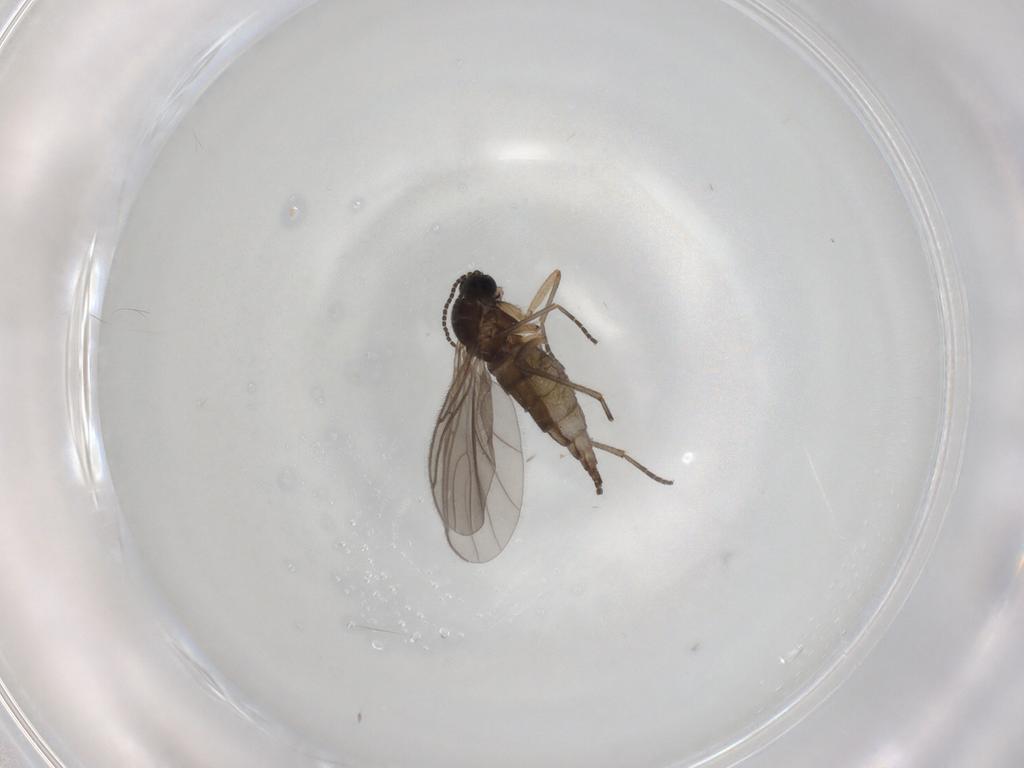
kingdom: Animalia
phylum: Arthropoda
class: Insecta
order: Diptera
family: Sciaridae
